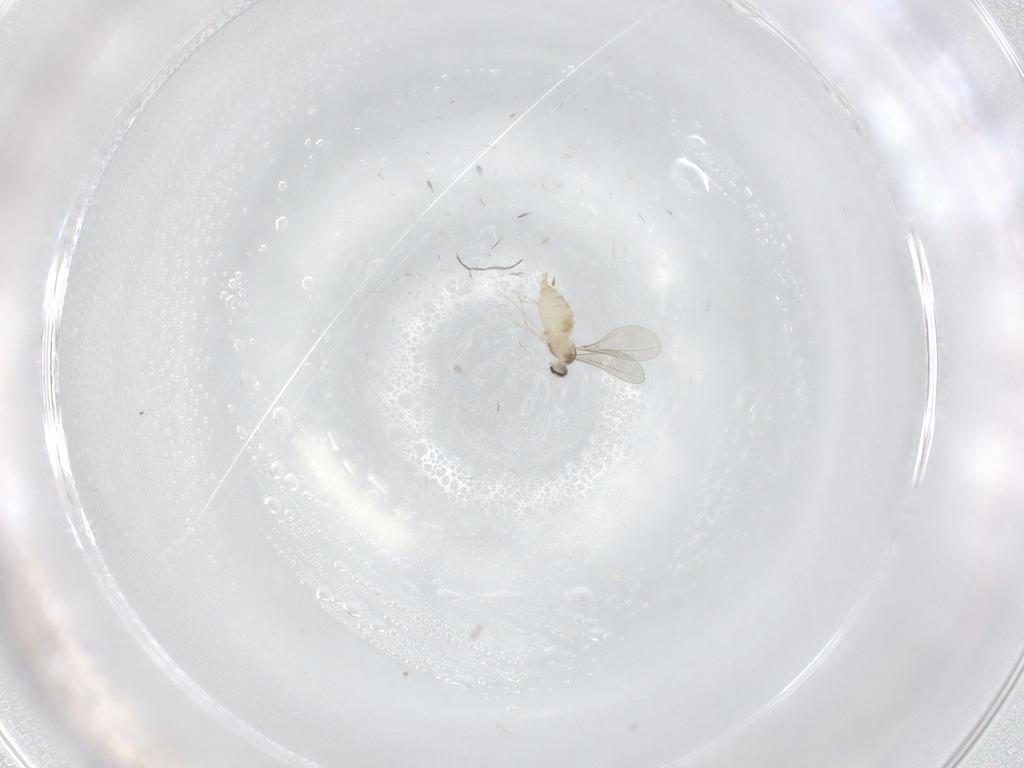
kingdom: Animalia
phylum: Arthropoda
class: Insecta
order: Diptera
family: Cecidomyiidae
